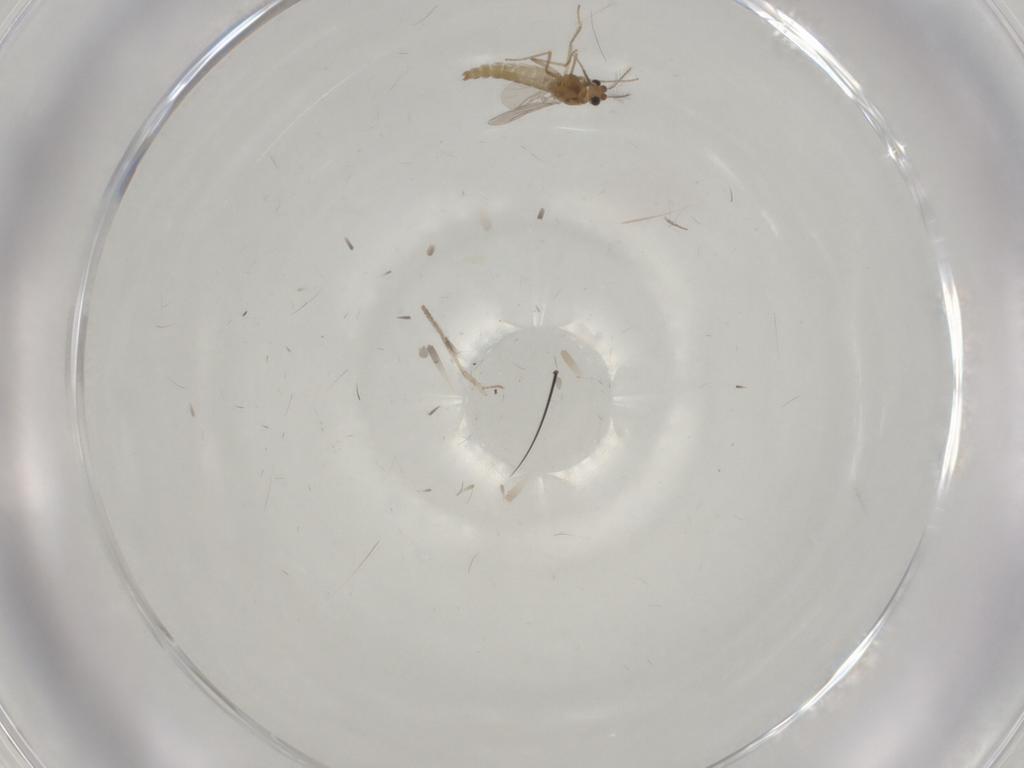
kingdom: Animalia
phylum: Arthropoda
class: Insecta
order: Diptera
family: Chironomidae
